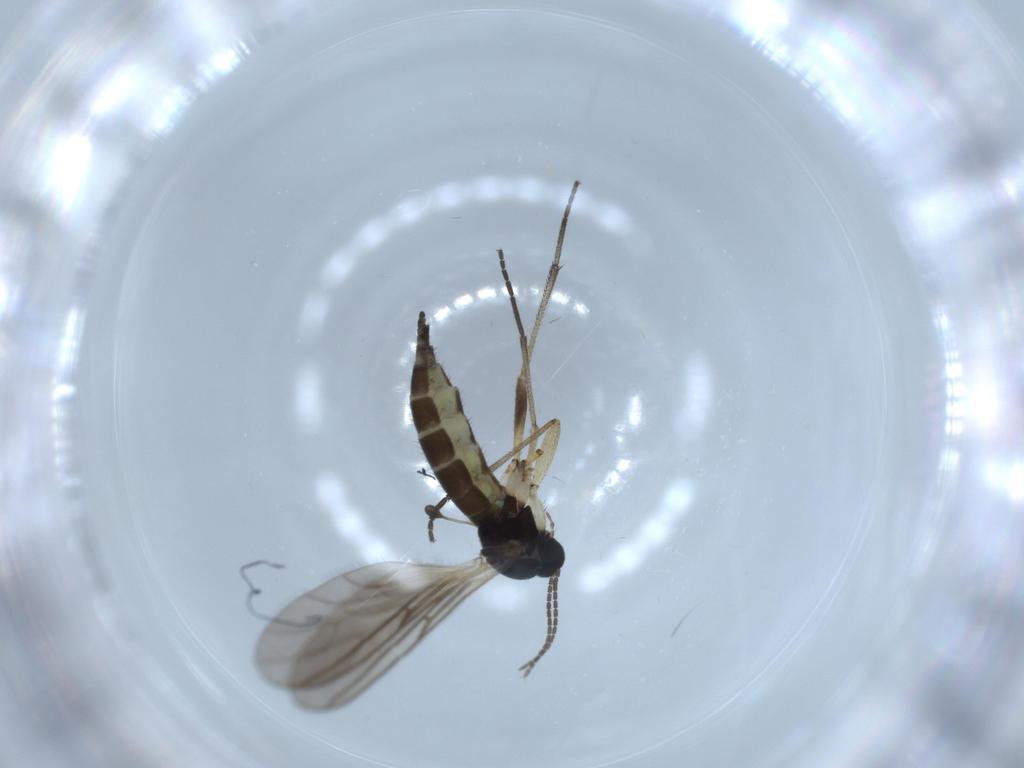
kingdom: Animalia
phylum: Arthropoda
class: Insecta
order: Diptera
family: Sciaridae
